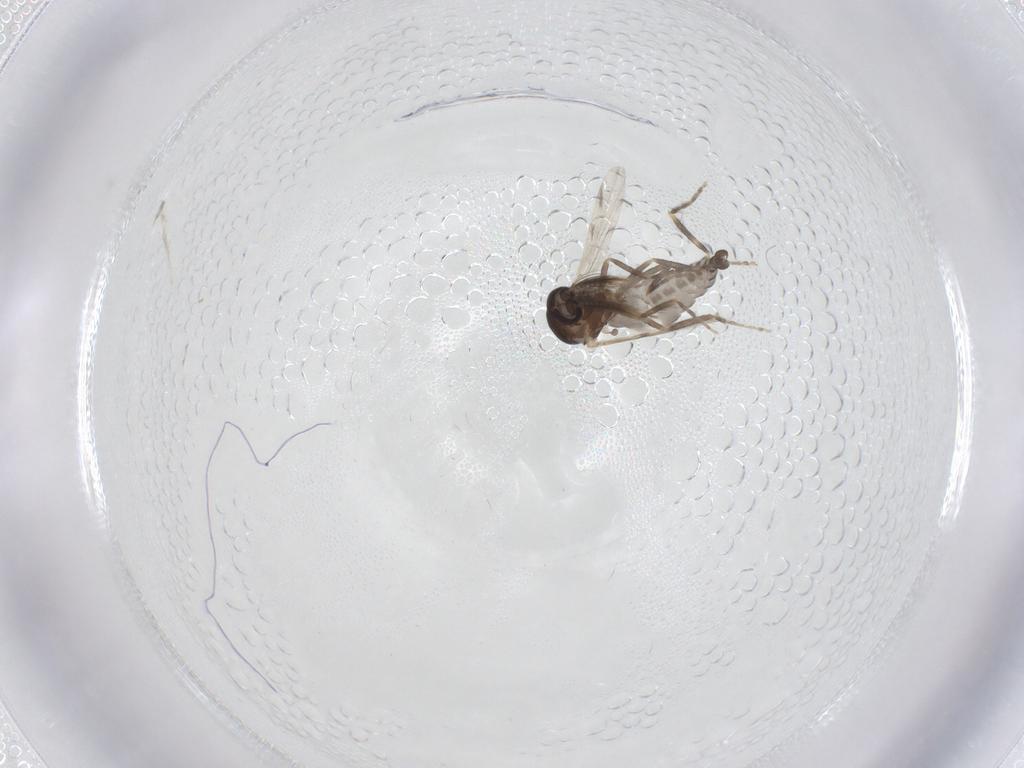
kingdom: Animalia
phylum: Arthropoda
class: Insecta
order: Diptera
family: Ceratopogonidae
